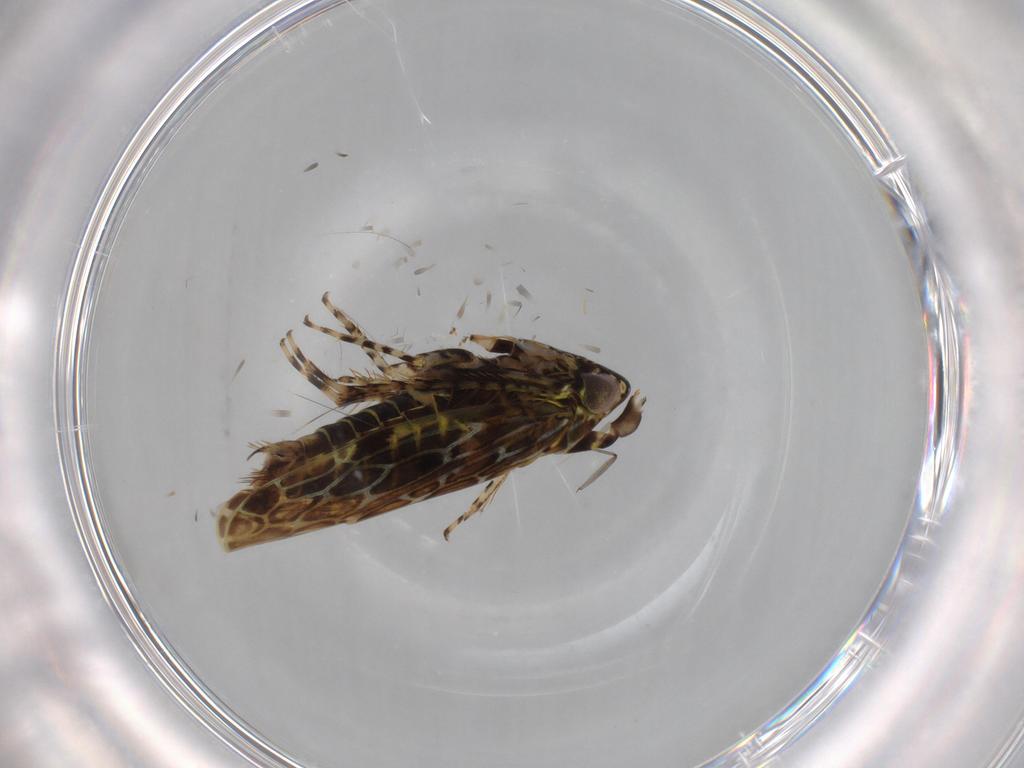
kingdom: Animalia
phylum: Arthropoda
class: Insecta
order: Hemiptera
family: Cicadellidae
